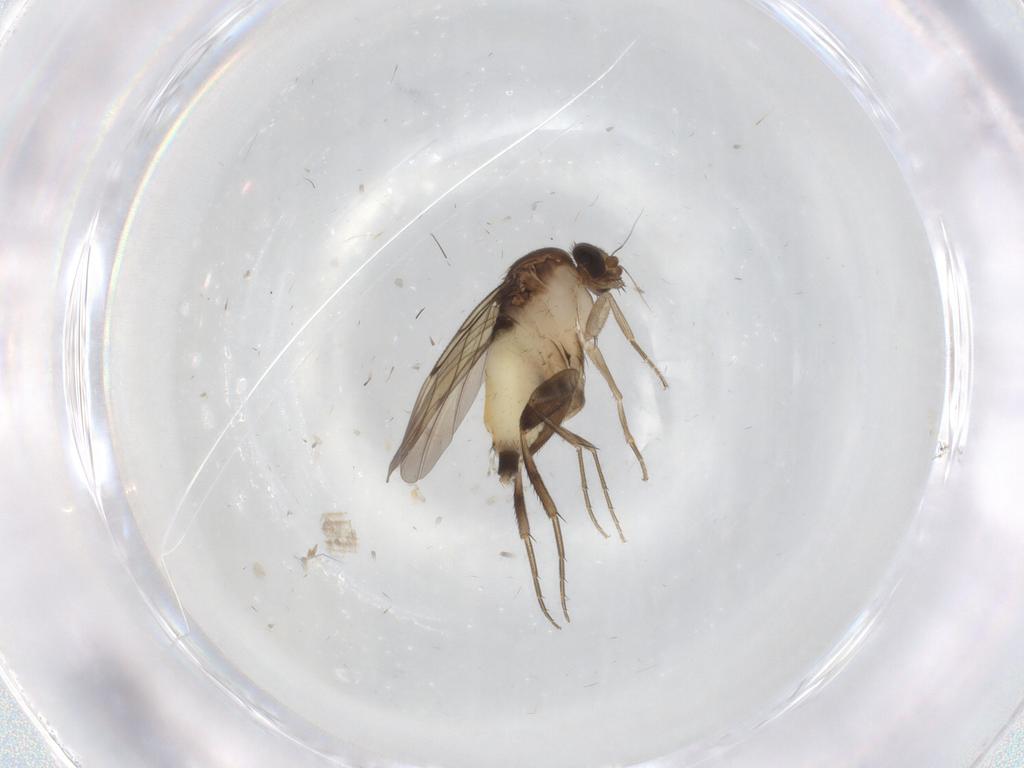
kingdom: Animalia
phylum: Arthropoda
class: Insecta
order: Diptera
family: Phoridae
